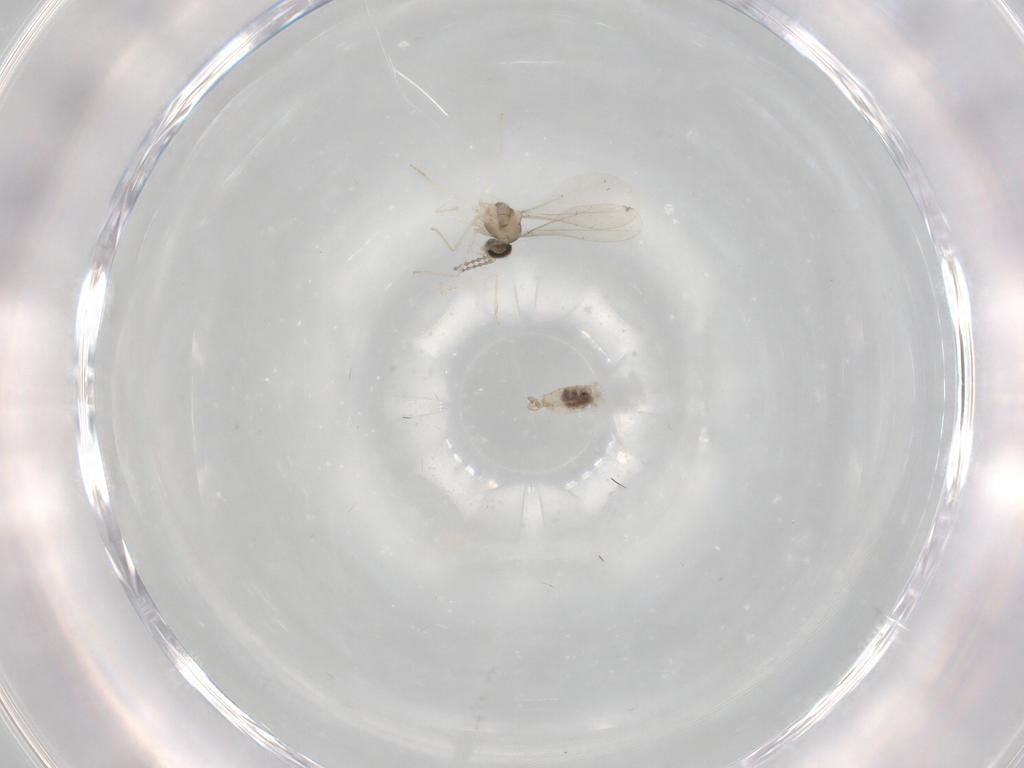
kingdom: Animalia
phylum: Arthropoda
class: Insecta
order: Diptera
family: Cecidomyiidae
